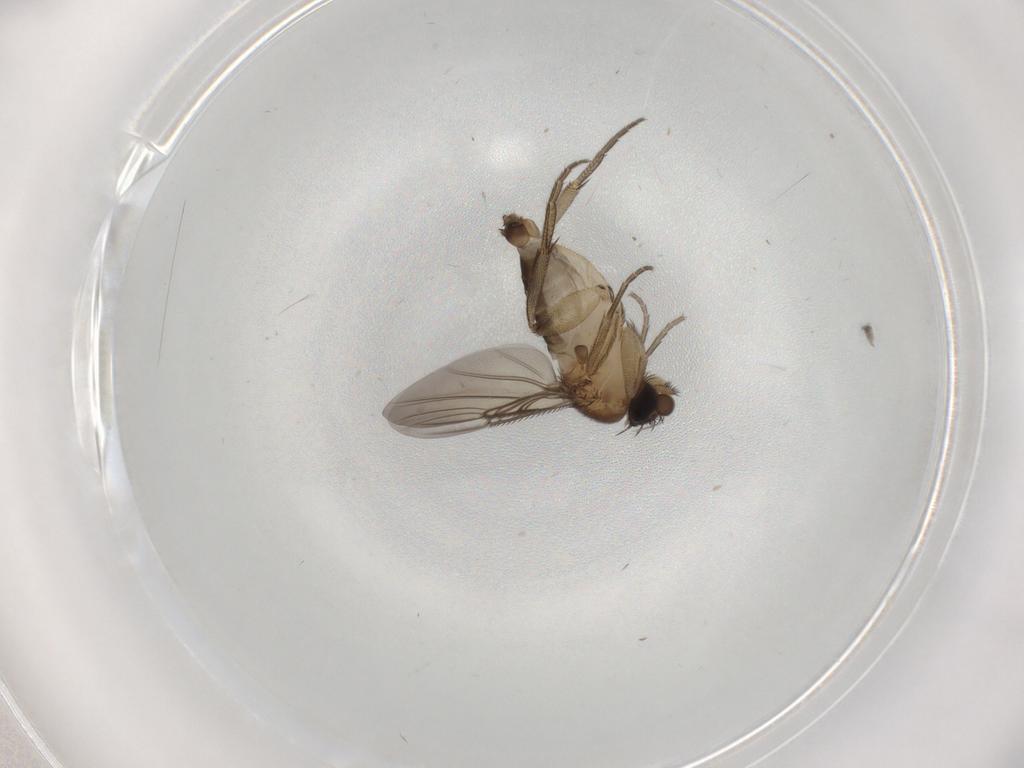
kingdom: Animalia
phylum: Arthropoda
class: Insecta
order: Diptera
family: Phoridae
